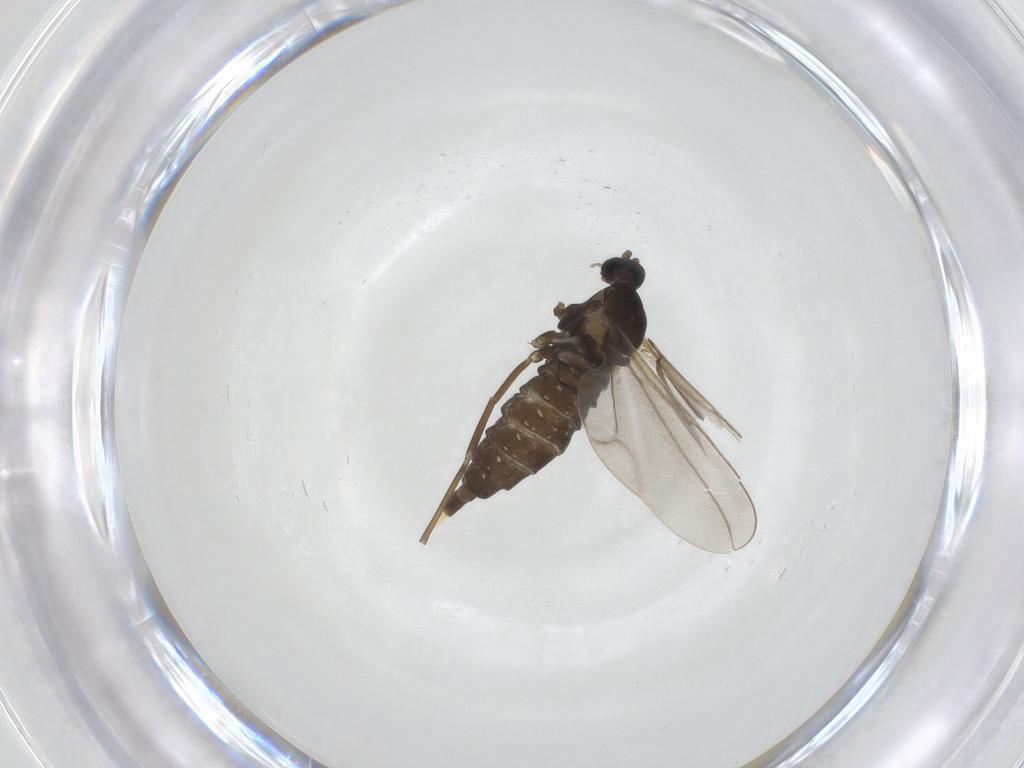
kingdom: Animalia
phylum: Arthropoda
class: Insecta
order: Diptera
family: Cecidomyiidae
